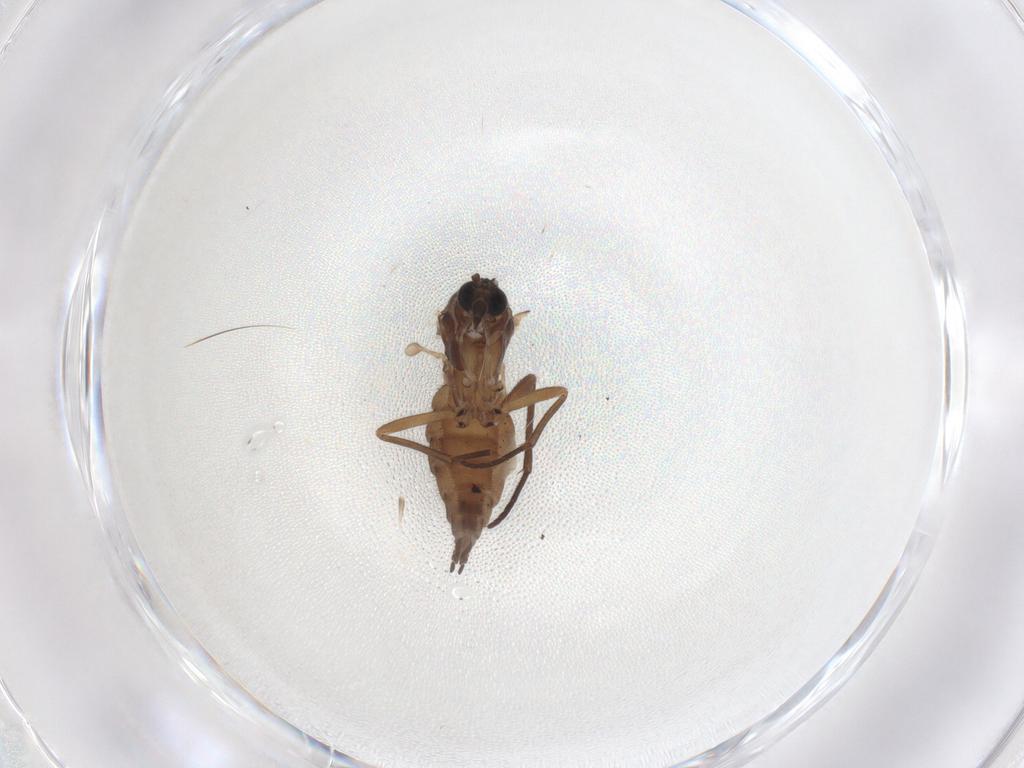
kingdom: Animalia
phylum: Arthropoda
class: Insecta
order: Diptera
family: Sciaridae
